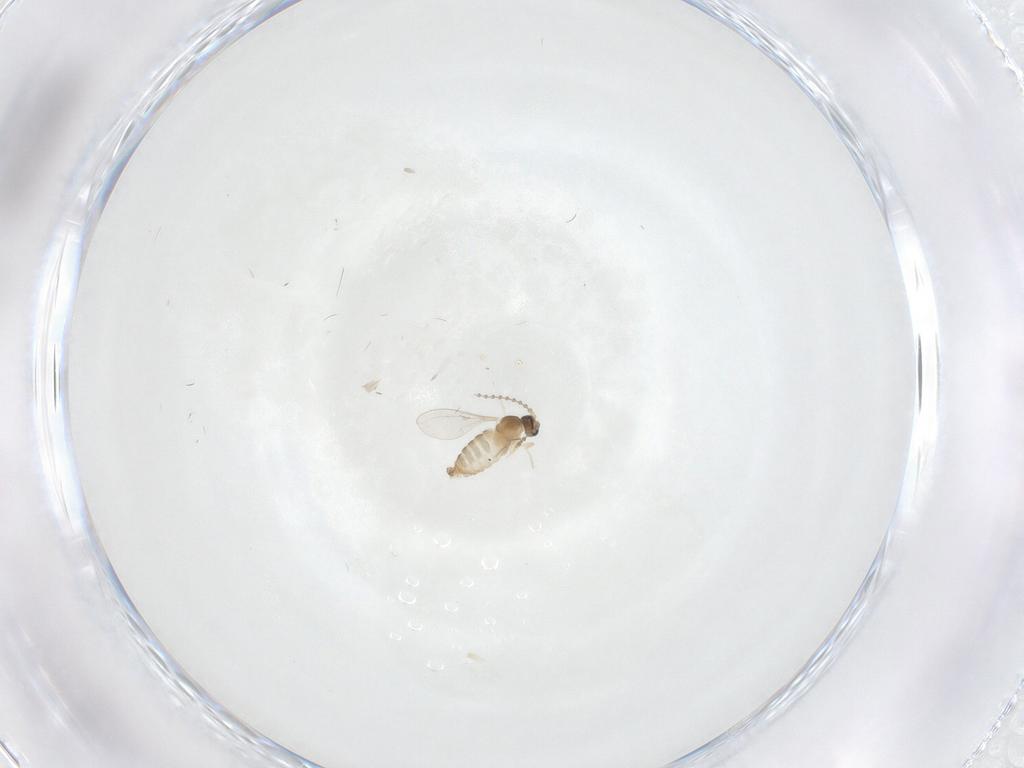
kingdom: Animalia
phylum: Arthropoda
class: Insecta
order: Diptera
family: Cecidomyiidae
